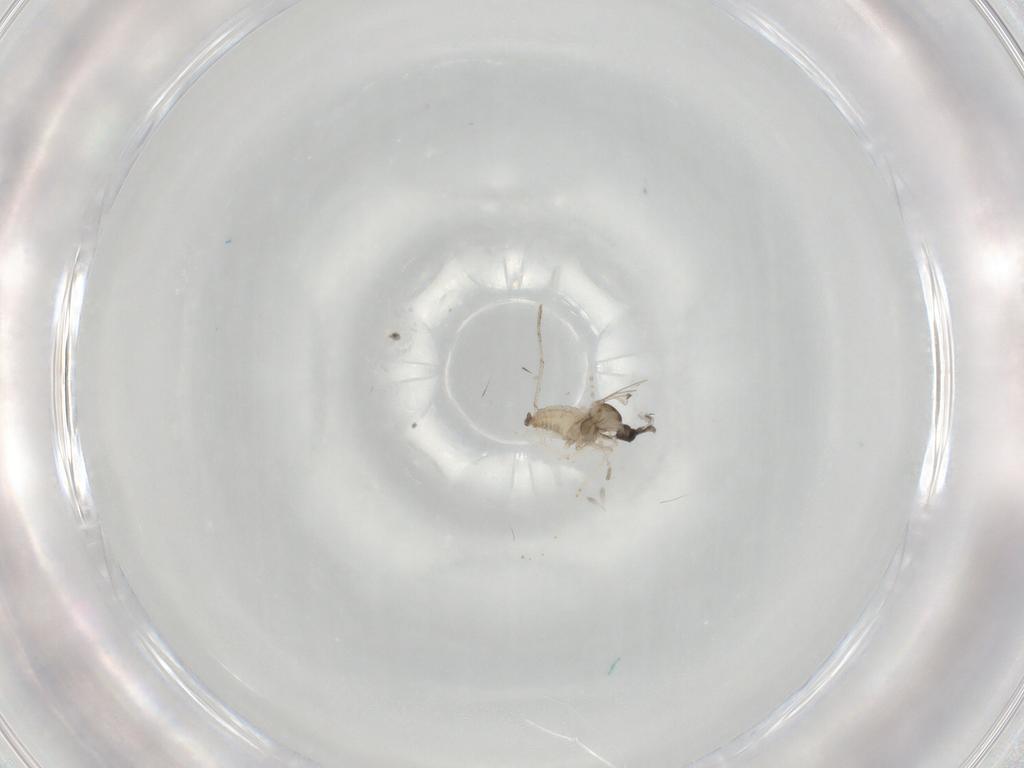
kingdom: Animalia
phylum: Arthropoda
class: Insecta
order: Diptera
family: Cecidomyiidae
